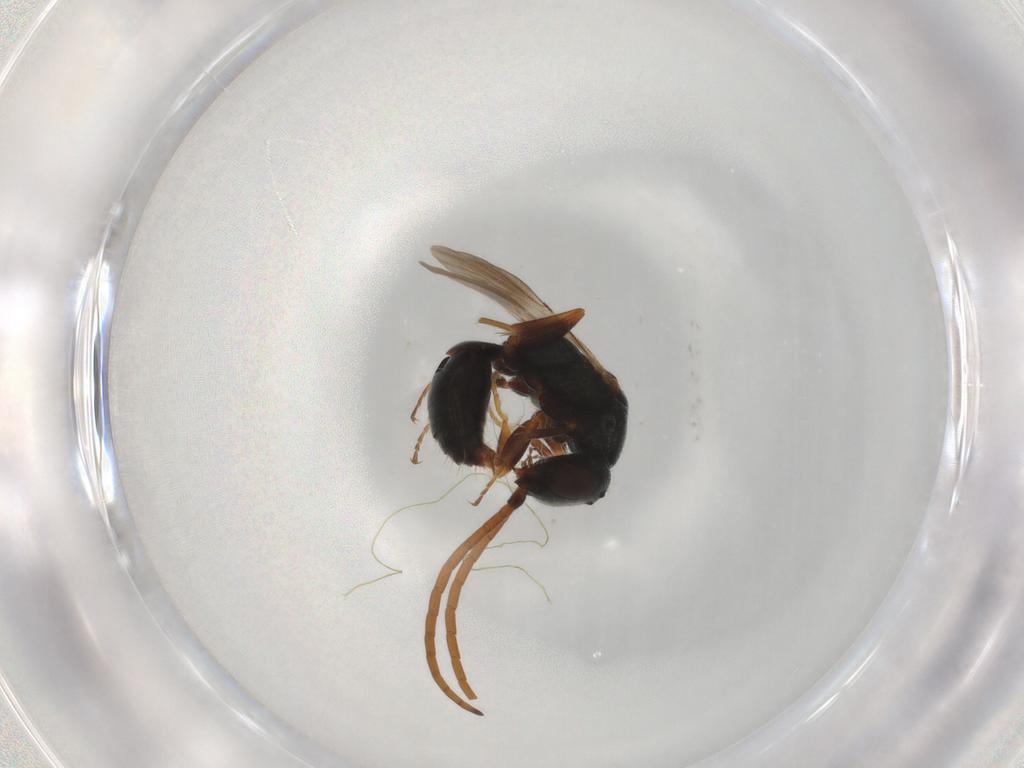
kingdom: Animalia
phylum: Arthropoda
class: Insecta
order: Hymenoptera
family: Bethylidae
